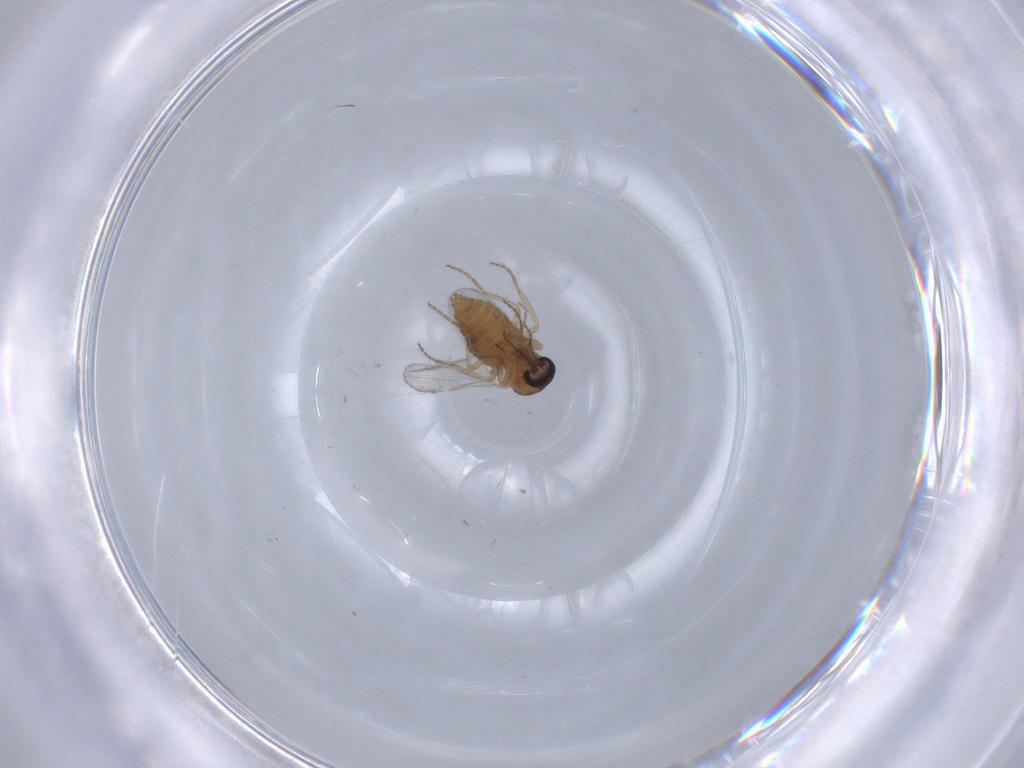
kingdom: Animalia
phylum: Arthropoda
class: Insecta
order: Diptera
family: Ceratopogonidae
